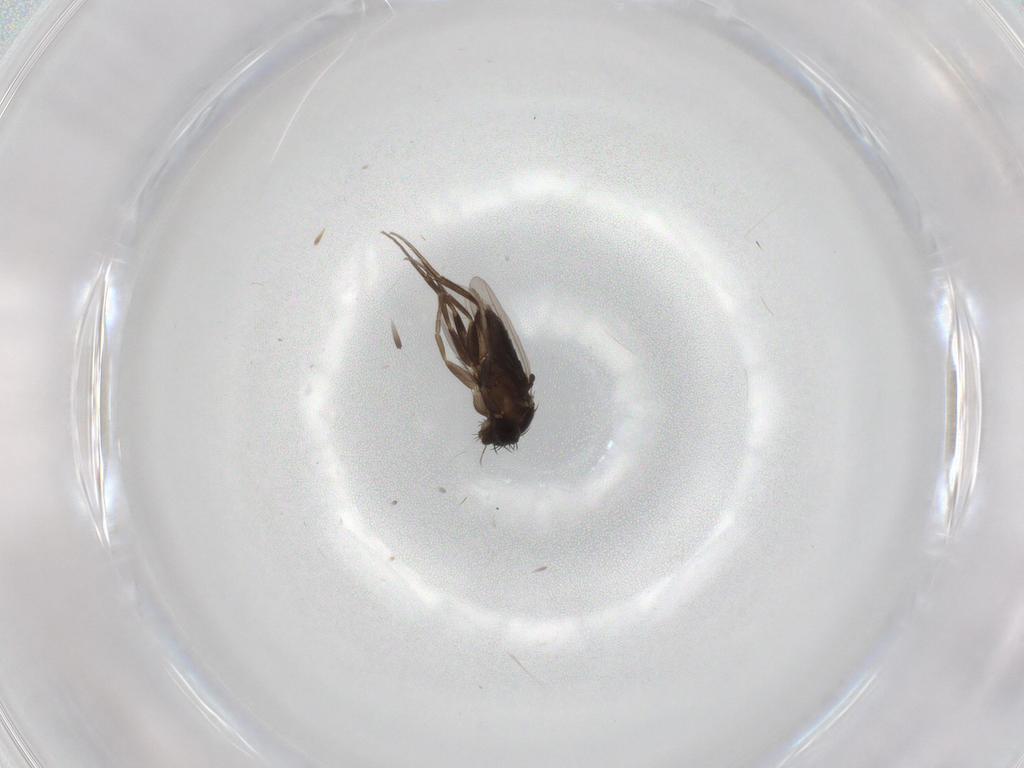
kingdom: Animalia
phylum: Arthropoda
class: Insecta
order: Diptera
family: Phoridae
